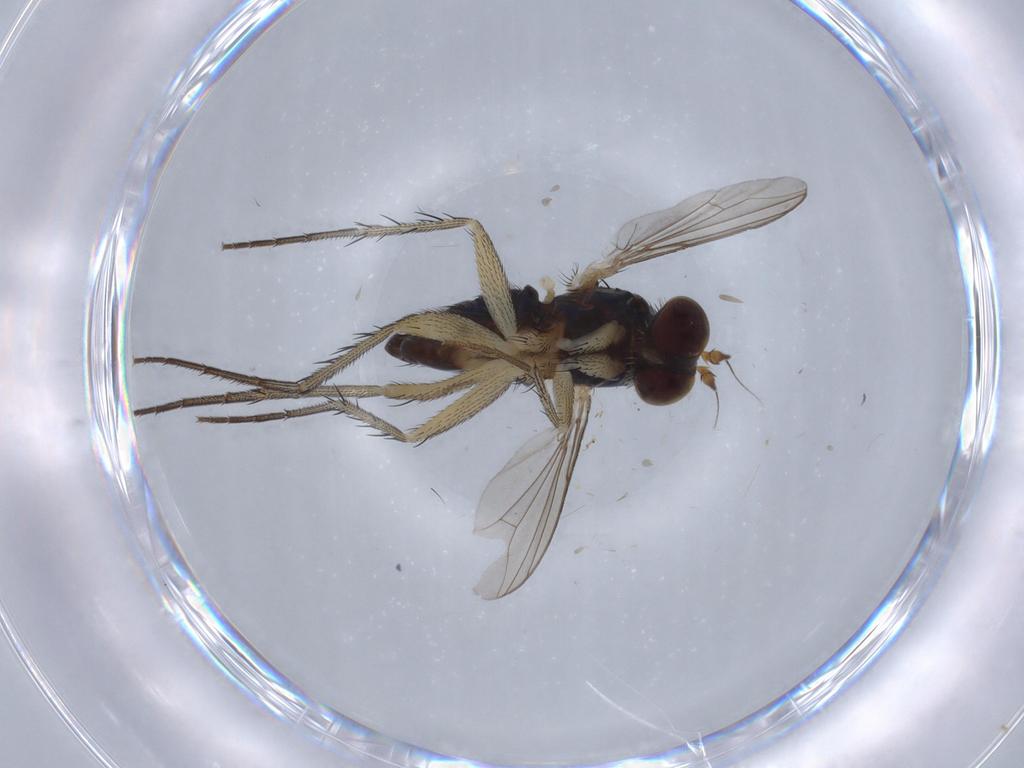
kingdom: Animalia
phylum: Arthropoda
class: Insecta
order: Diptera
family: Dolichopodidae
